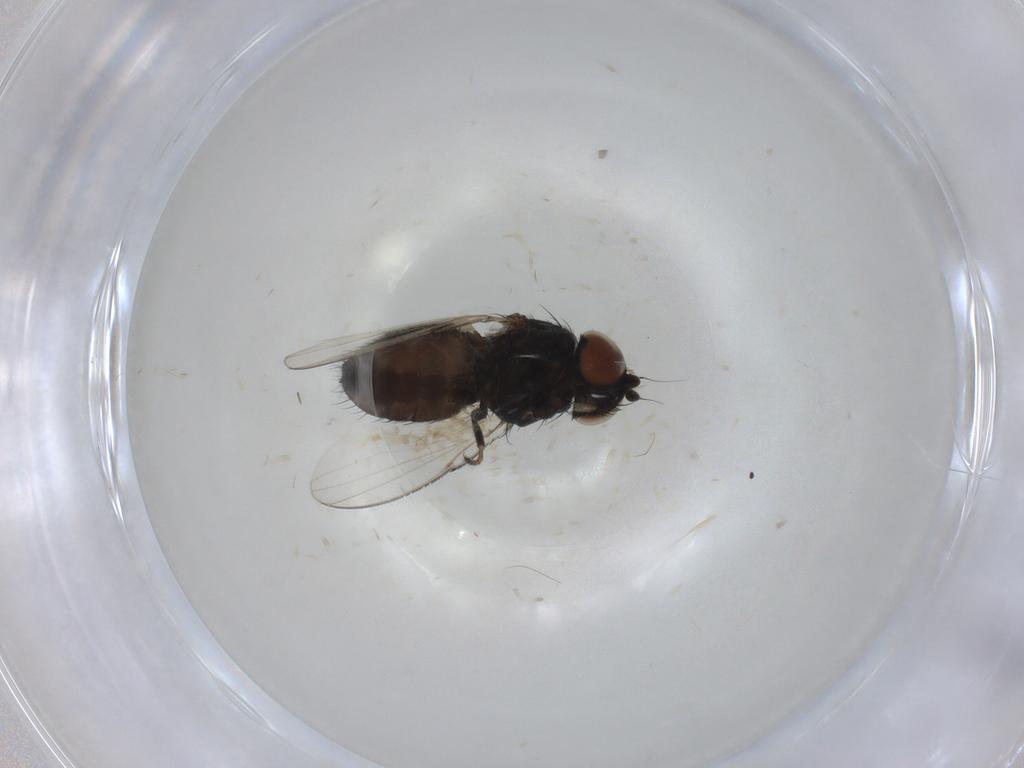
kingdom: Animalia
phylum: Arthropoda
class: Insecta
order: Diptera
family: Milichiidae
